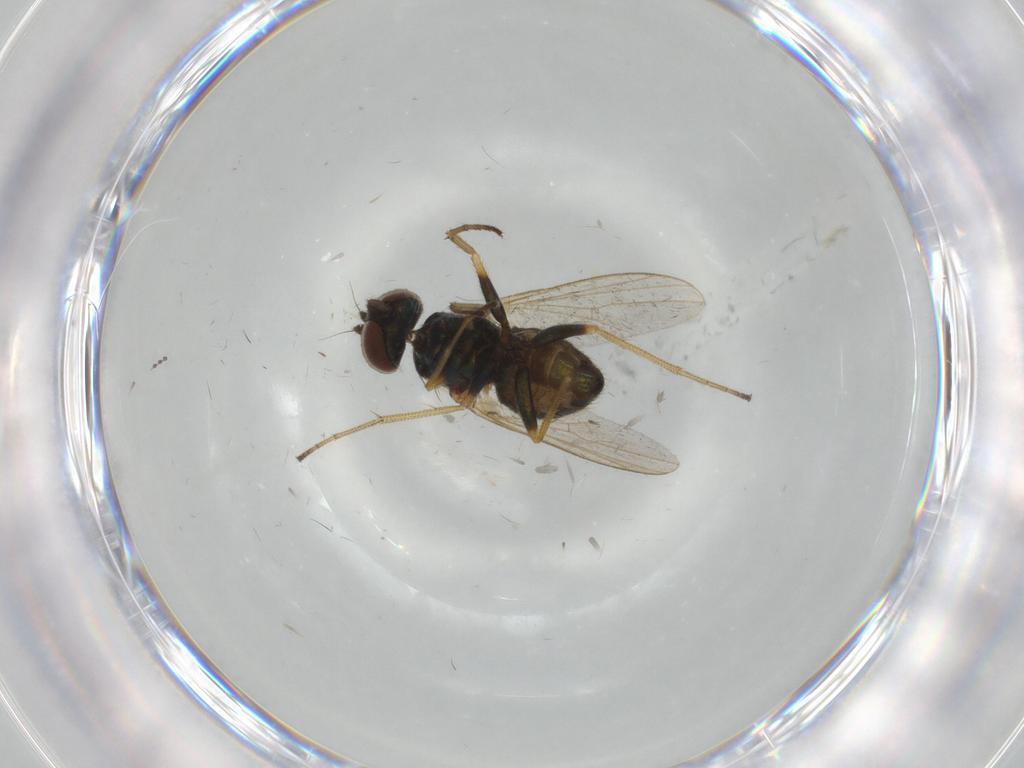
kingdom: Animalia
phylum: Arthropoda
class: Insecta
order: Diptera
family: Dolichopodidae
